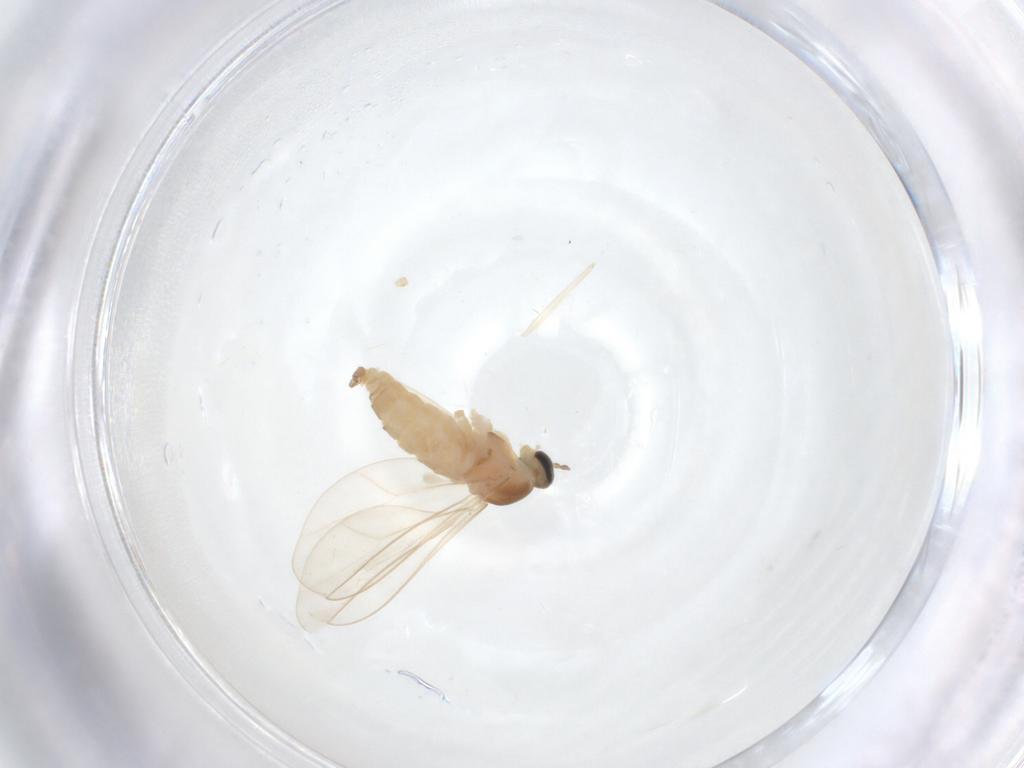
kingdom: Animalia
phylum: Arthropoda
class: Insecta
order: Diptera
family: Cecidomyiidae
